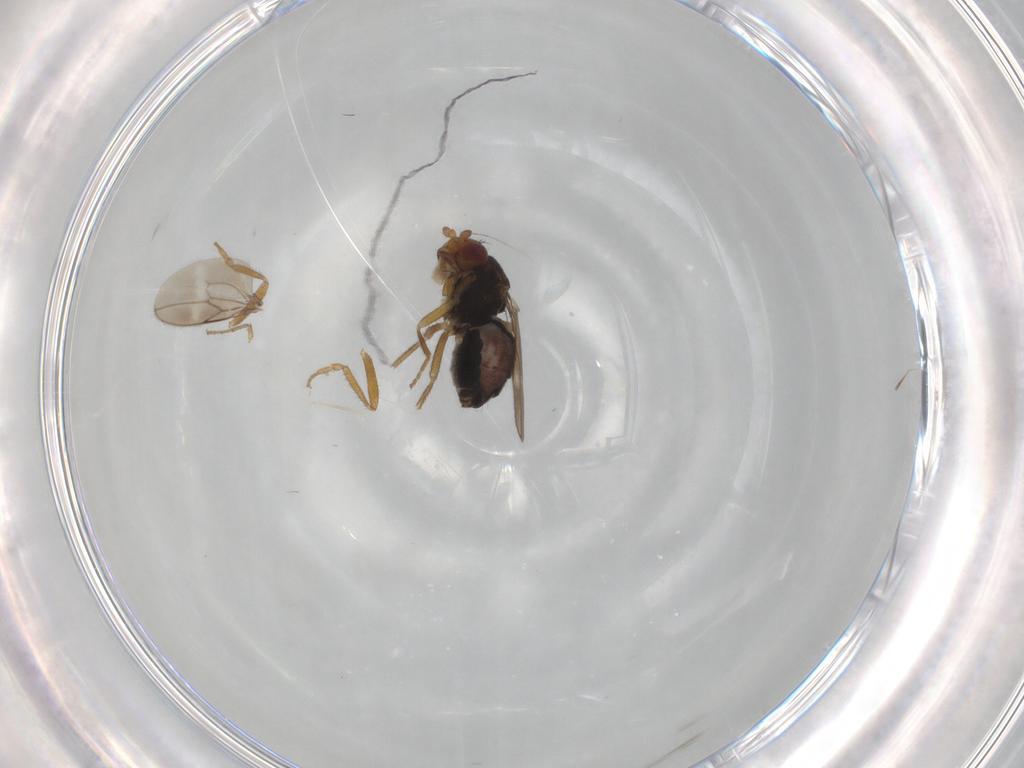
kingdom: Animalia
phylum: Arthropoda
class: Insecta
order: Diptera
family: Sphaeroceridae
